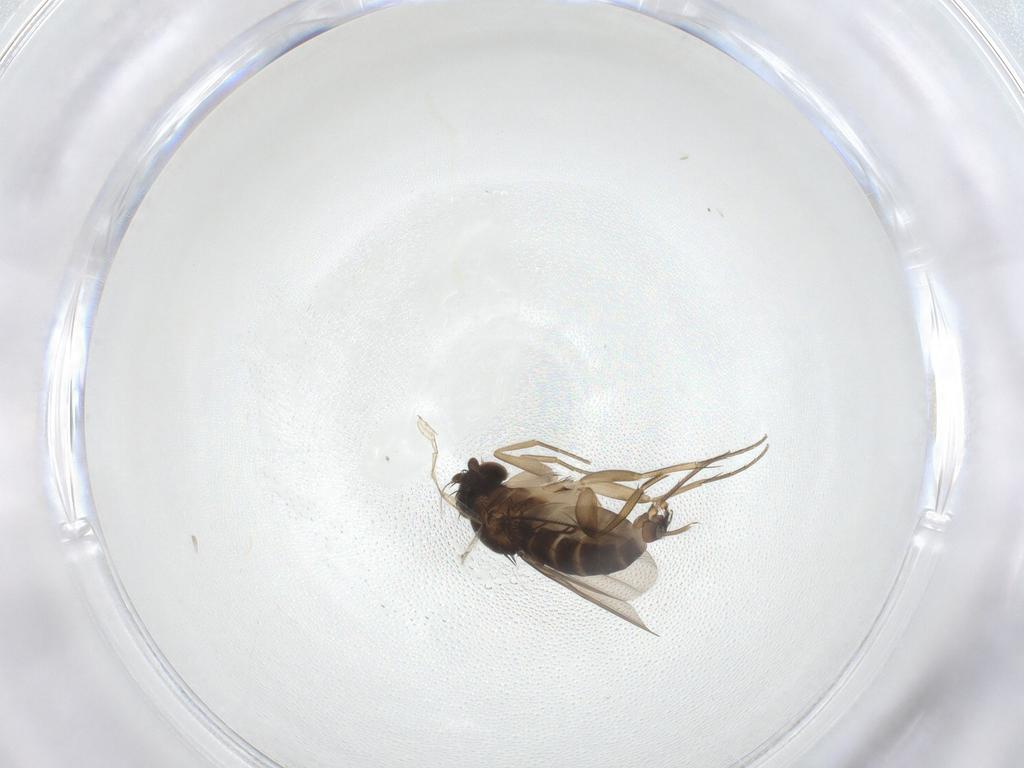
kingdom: Animalia
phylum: Arthropoda
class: Insecta
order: Diptera
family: Phoridae
